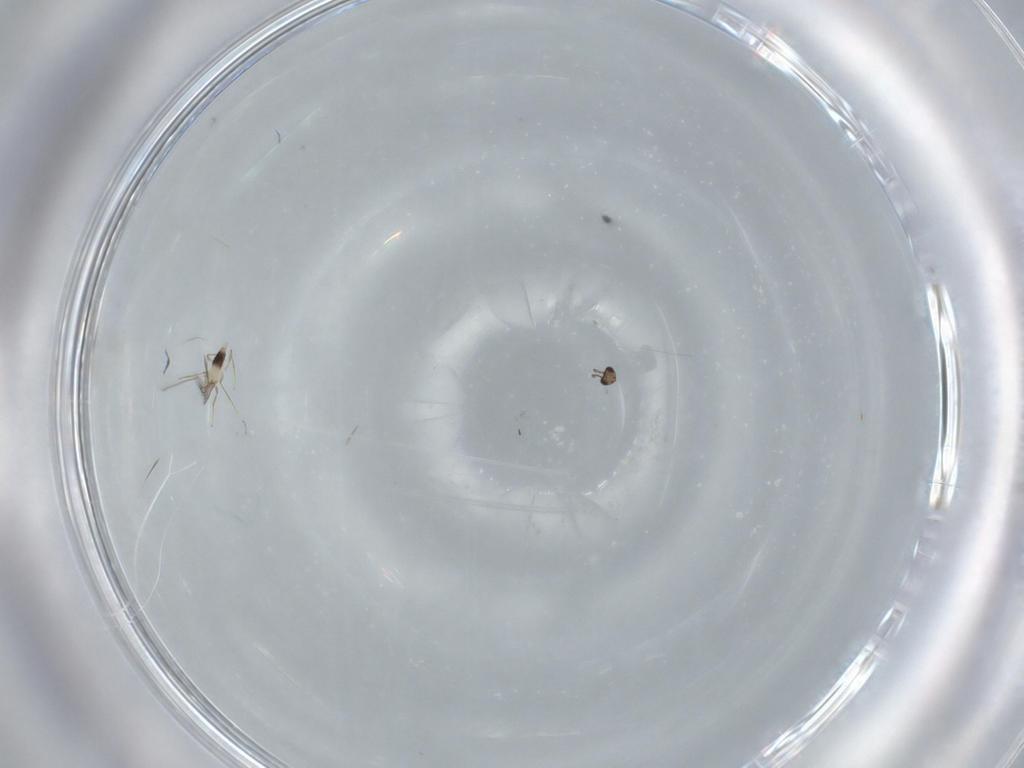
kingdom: Animalia
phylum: Arthropoda
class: Insecta
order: Hymenoptera
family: Mymaridae
